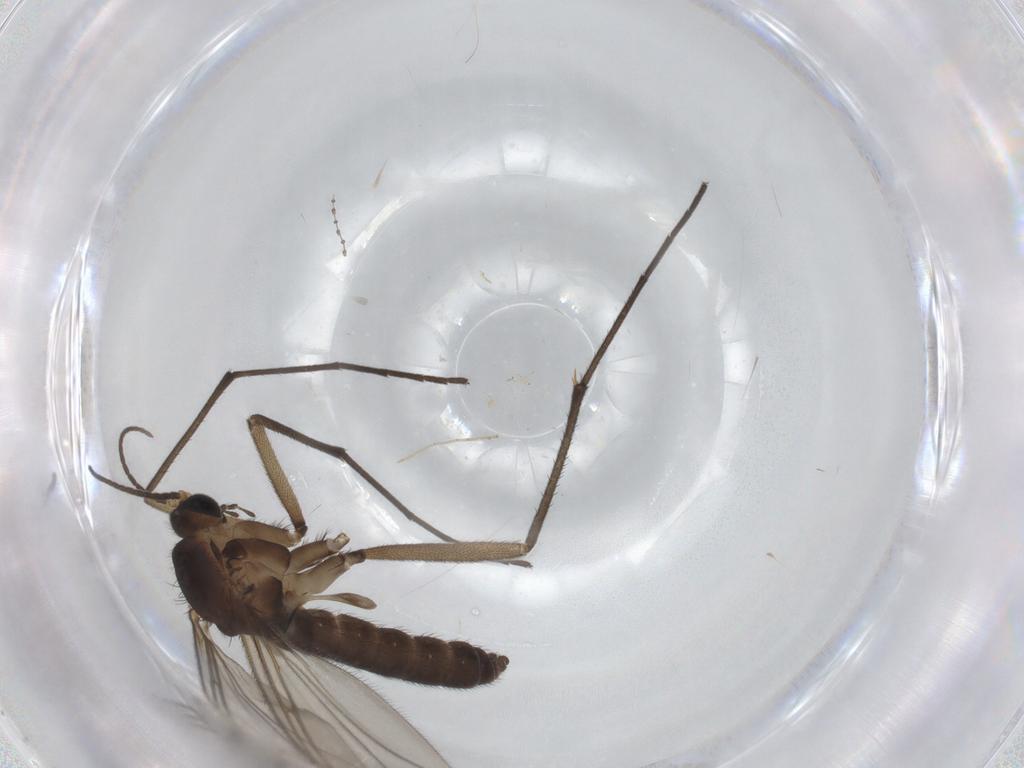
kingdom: Animalia
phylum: Arthropoda
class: Insecta
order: Diptera
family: Sciaridae
